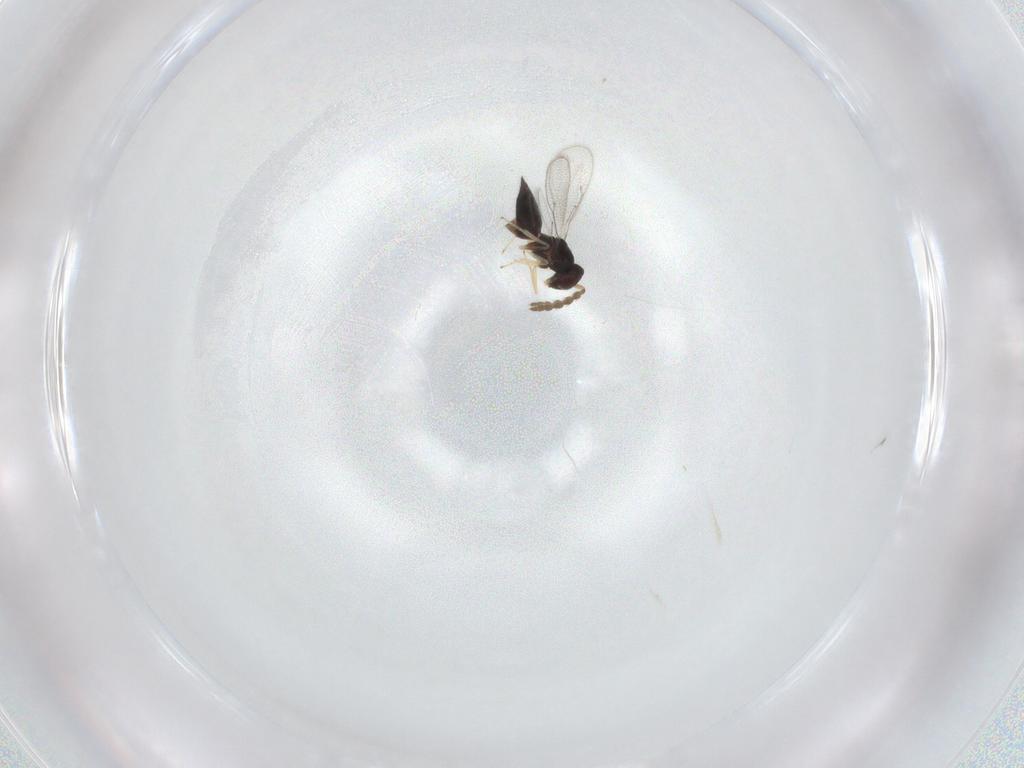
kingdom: Animalia
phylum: Arthropoda
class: Insecta
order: Hymenoptera
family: Eulophidae
